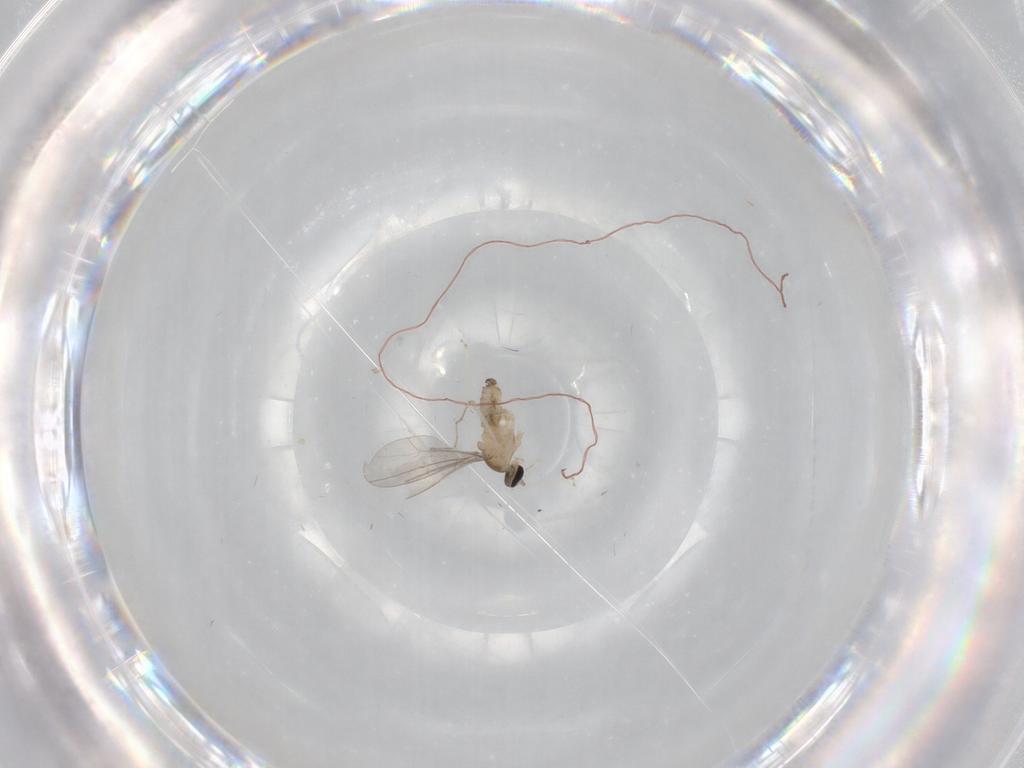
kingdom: Animalia
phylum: Arthropoda
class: Insecta
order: Diptera
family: Cecidomyiidae
